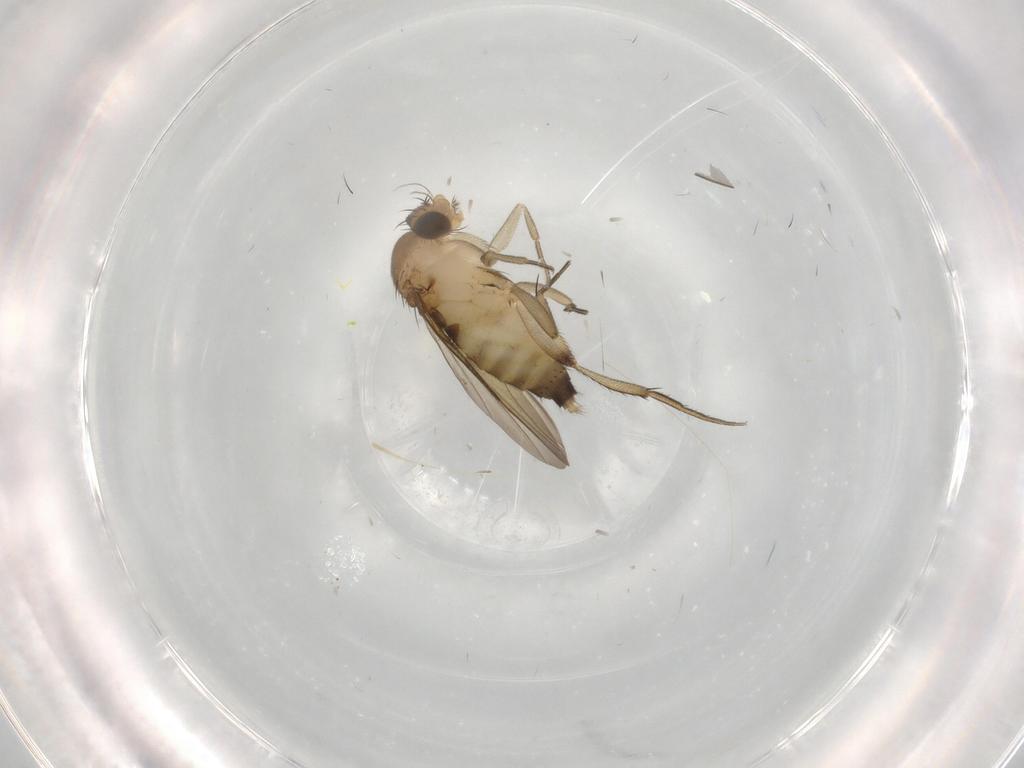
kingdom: Animalia
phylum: Arthropoda
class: Insecta
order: Diptera
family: Phoridae
